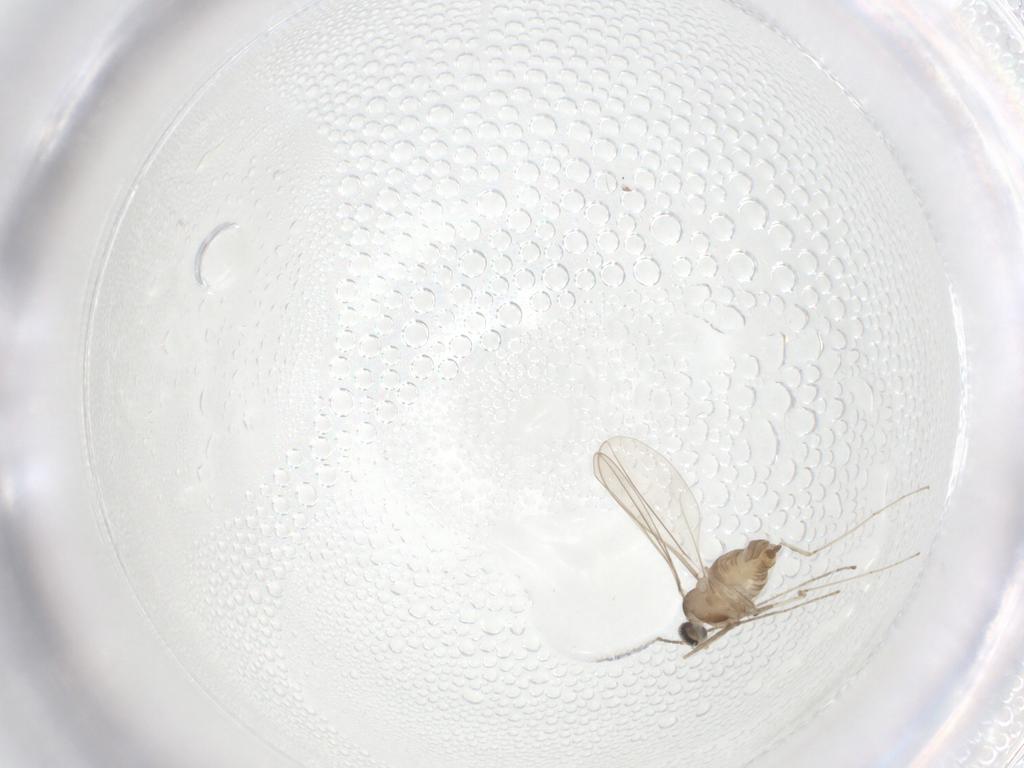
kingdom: Animalia
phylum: Arthropoda
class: Insecta
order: Diptera
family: Cecidomyiidae
